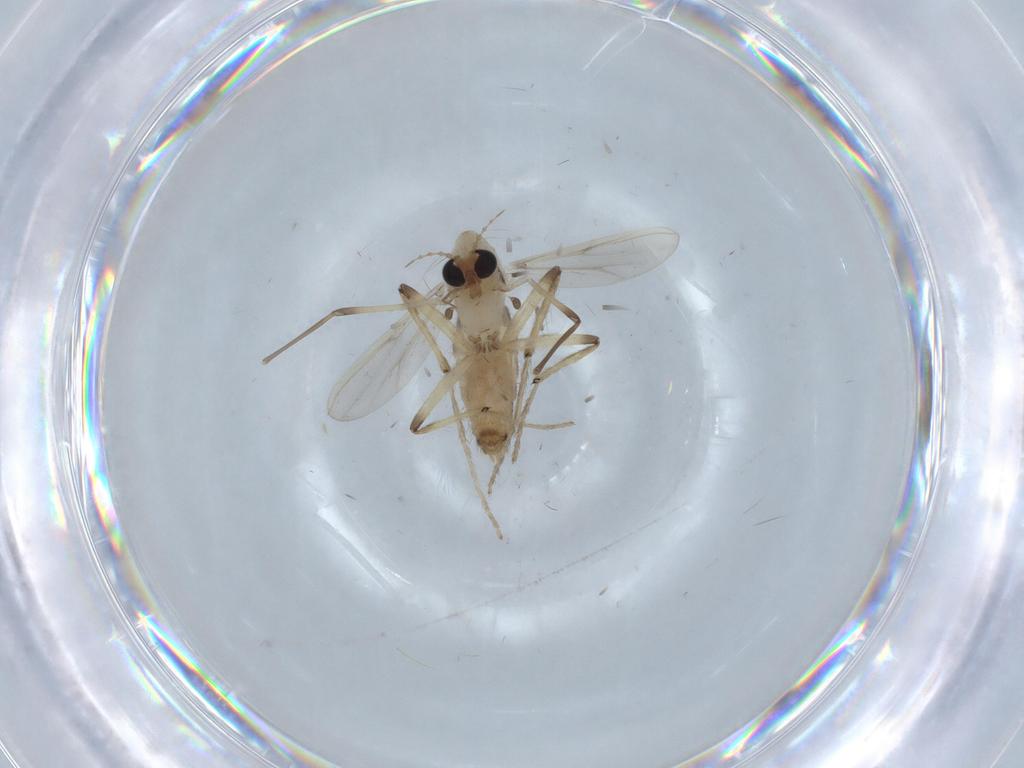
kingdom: Animalia
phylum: Arthropoda
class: Insecta
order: Diptera
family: Chironomidae
